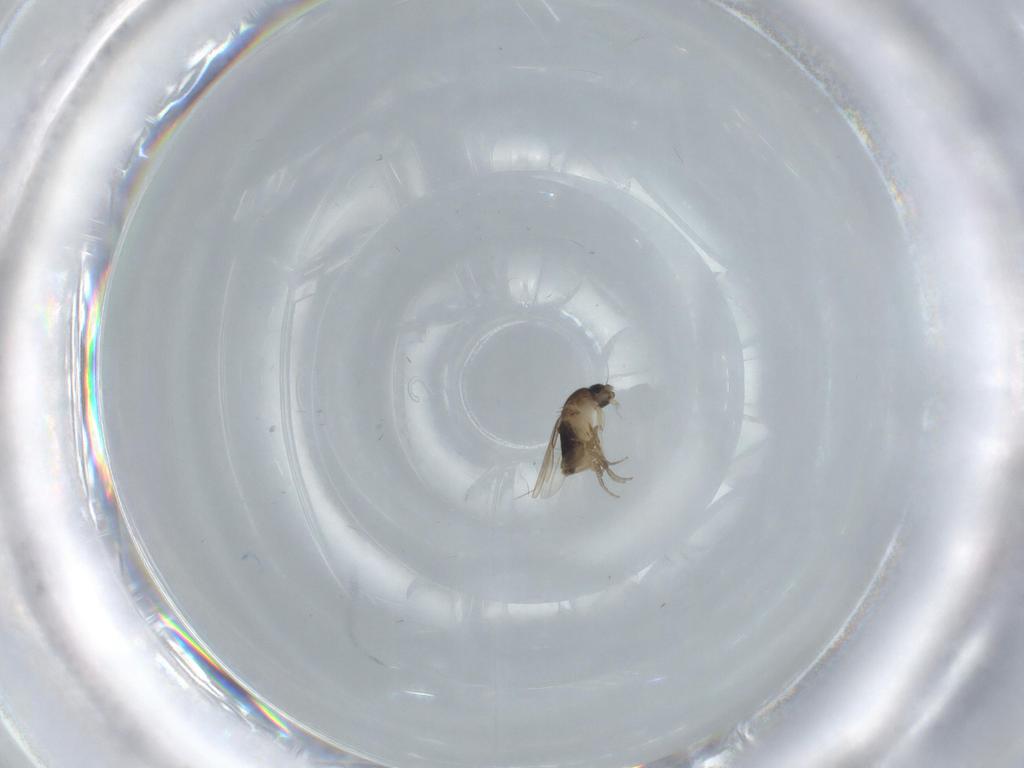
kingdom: Animalia
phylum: Arthropoda
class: Insecta
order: Diptera
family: Phoridae
